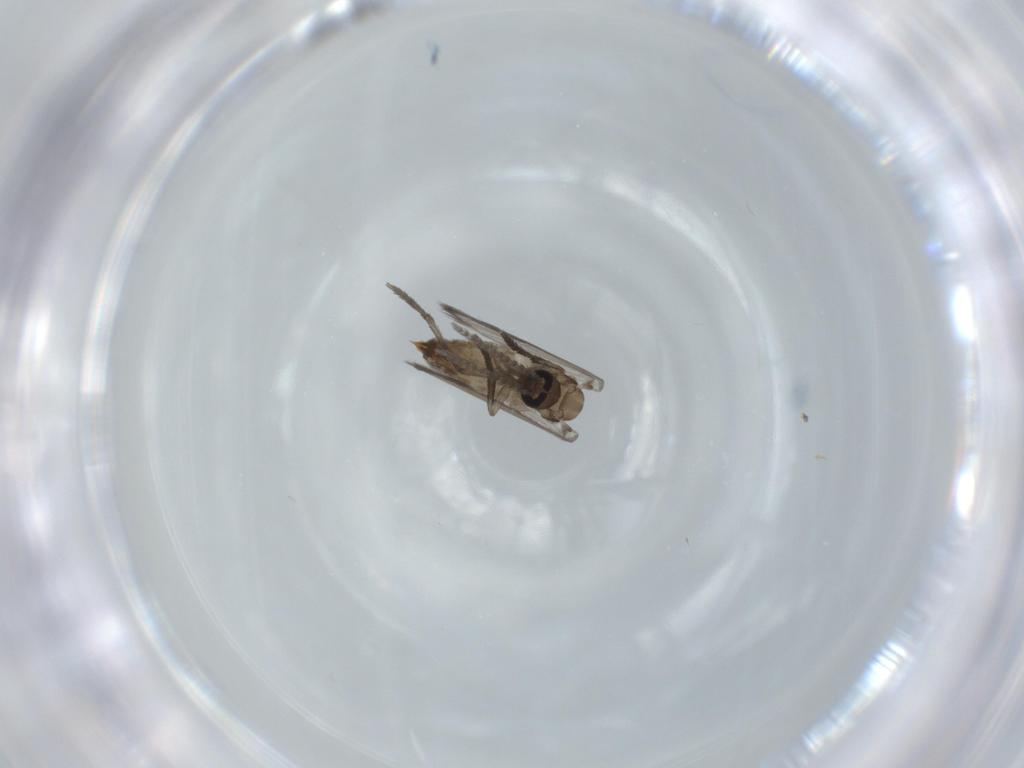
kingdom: Animalia
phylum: Arthropoda
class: Insecta
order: Diptera
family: Psychodidae
